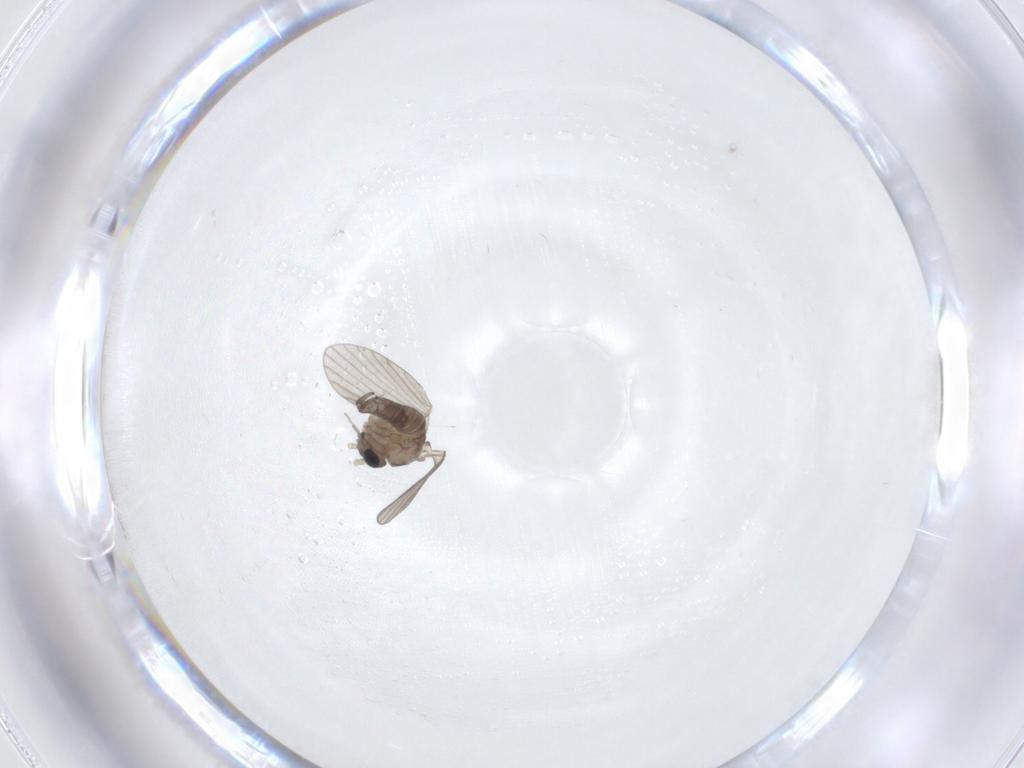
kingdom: Animalia
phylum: Arthropoda
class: Insecta
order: Diptera
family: Psychodidae
